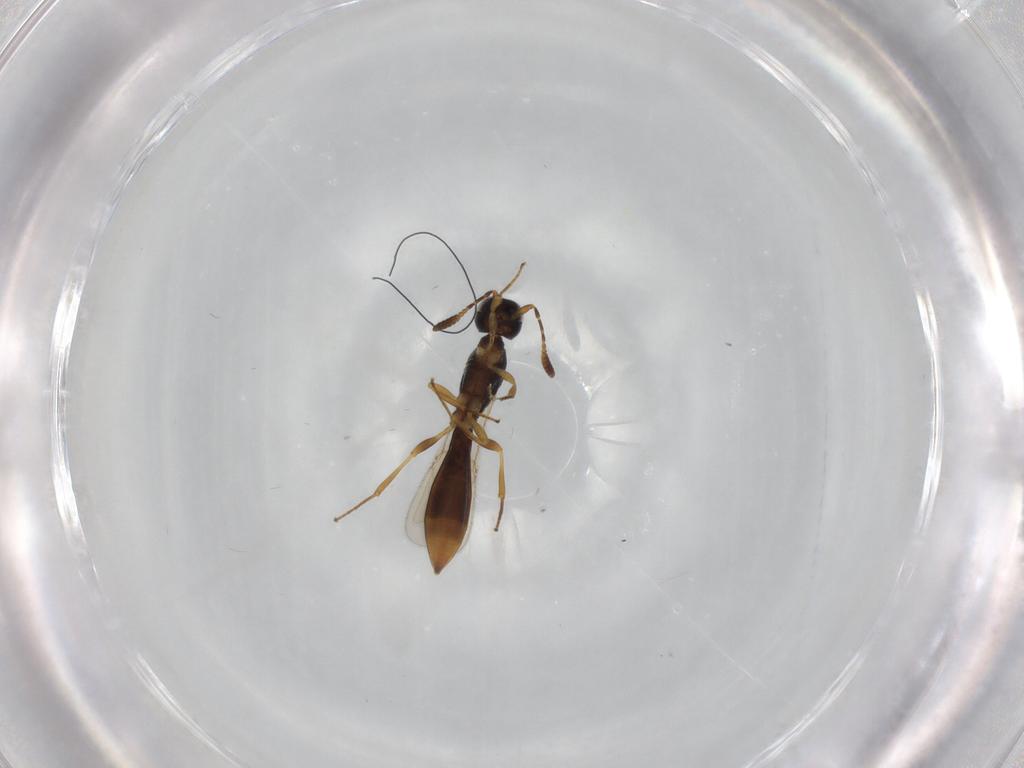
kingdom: Animalia
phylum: Arthropoda
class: Insecta
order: Hymenoptera
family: Scelionidae
